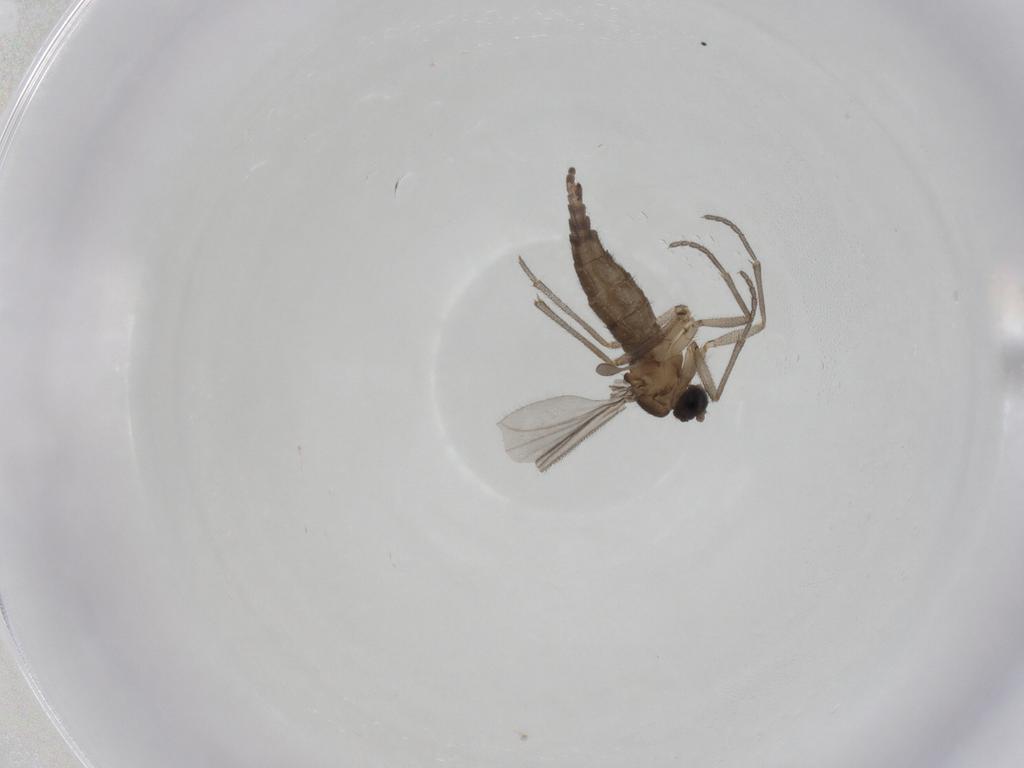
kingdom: Animalia
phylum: Arthropoda
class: Insecta
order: Diptera
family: Sciaridae
